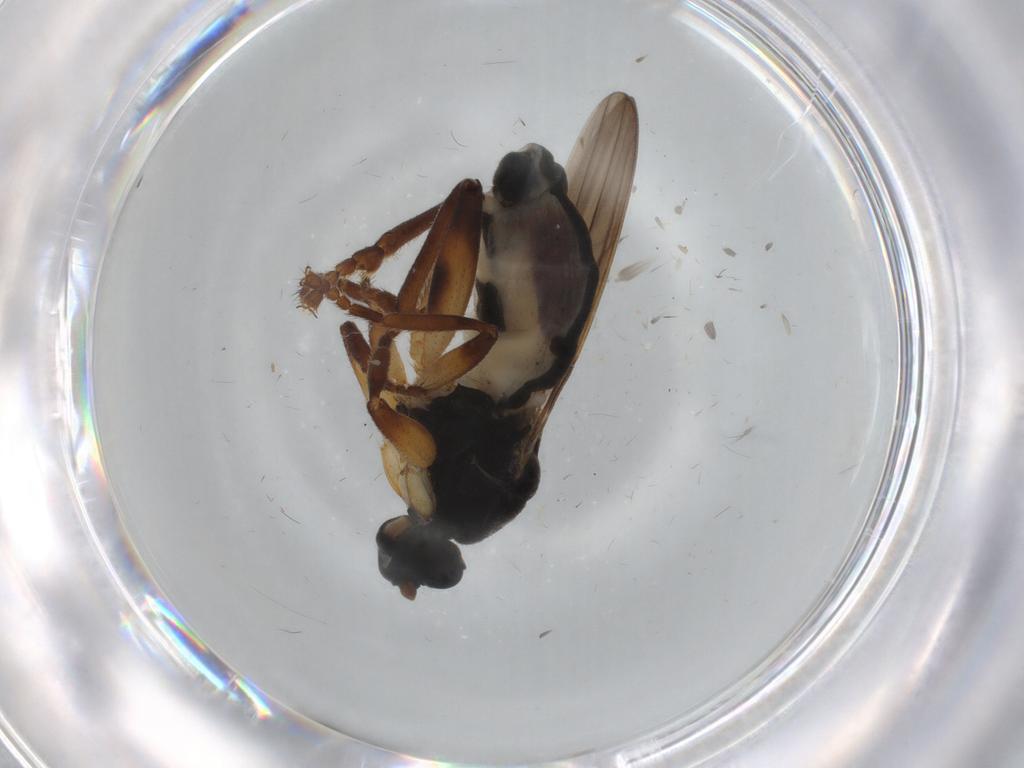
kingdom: Animalia
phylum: Arthropoda
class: Insecta
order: Diptera
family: Sphaeroceridae
